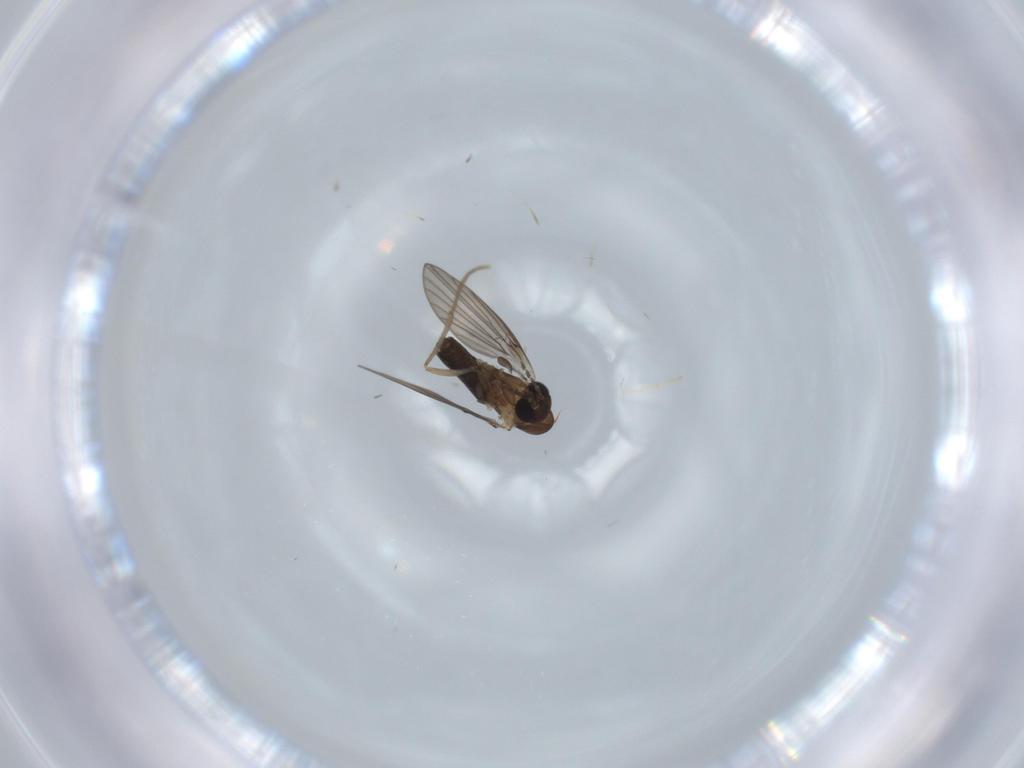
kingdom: Animalia
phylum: Arthropoda
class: Insecta
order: Diptera
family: Psychodidae
